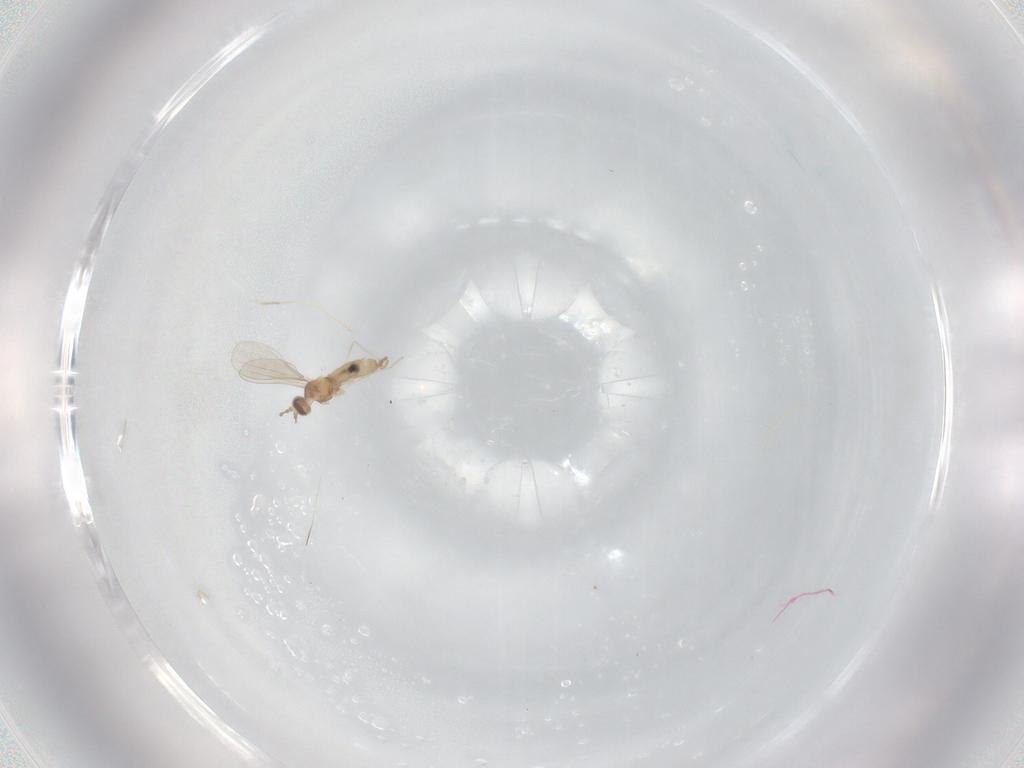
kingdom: Animalia
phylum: Arthropoda
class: Insecta
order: Diptera
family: Cecidomyiidae
